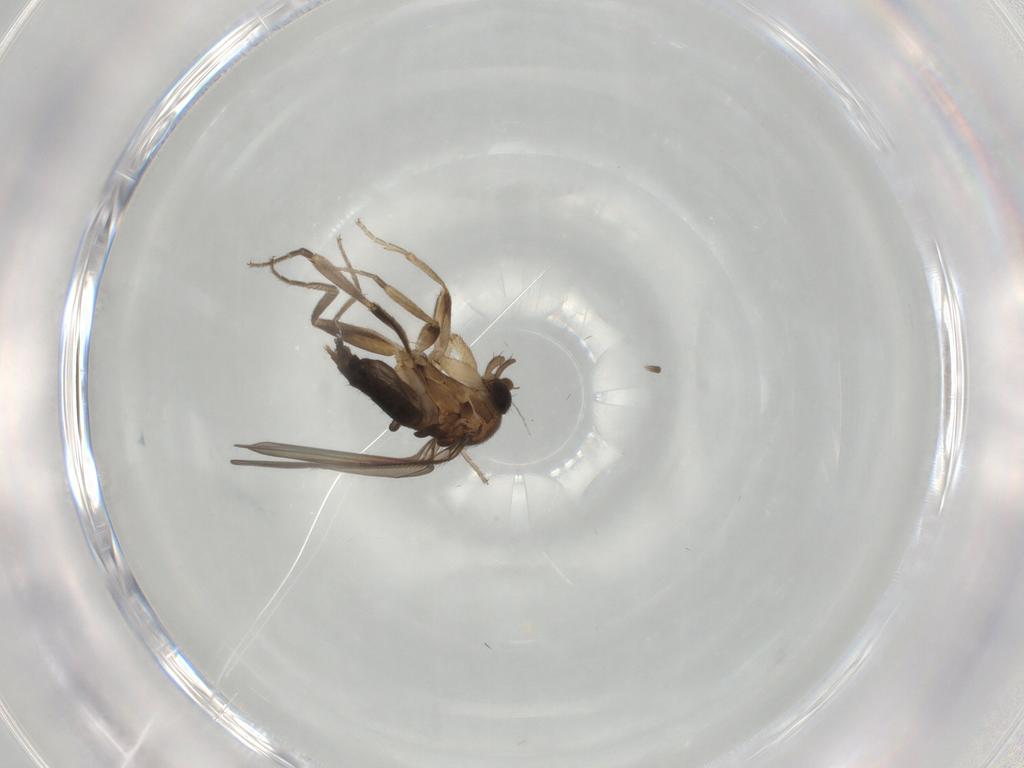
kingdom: Animalia
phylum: Arthropoda
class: Insecta
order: Diptera
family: Phoridae
